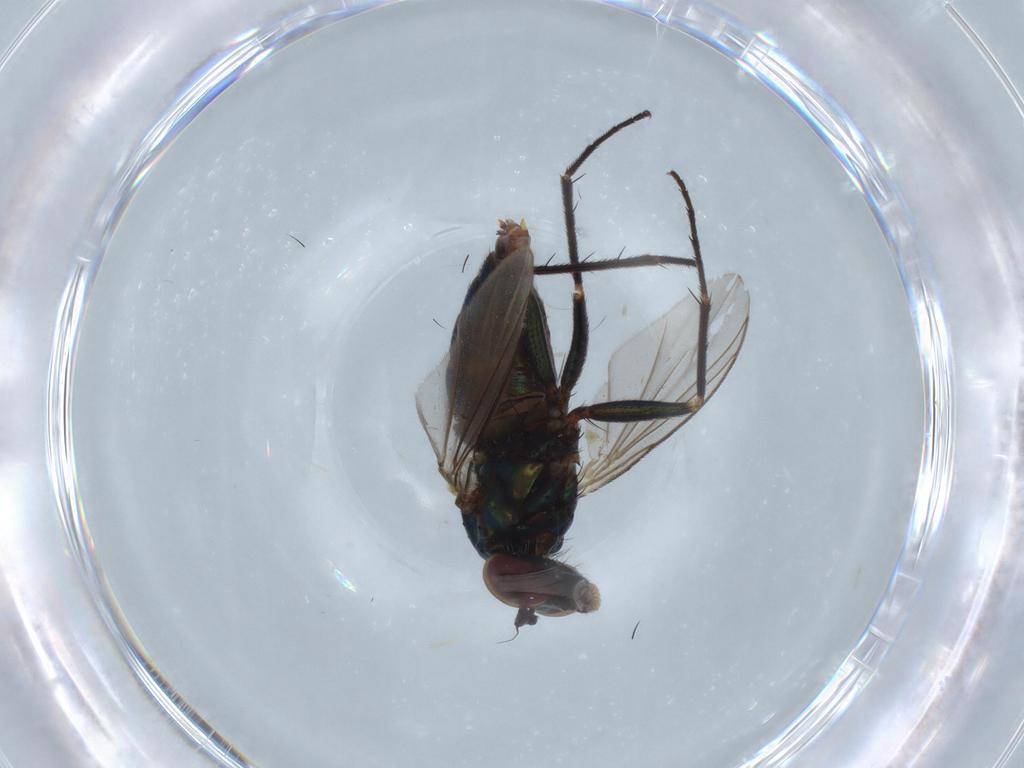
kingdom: Animalia
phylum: Arthropoda
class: Insecta
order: Diptera
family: Dolichopodidae
